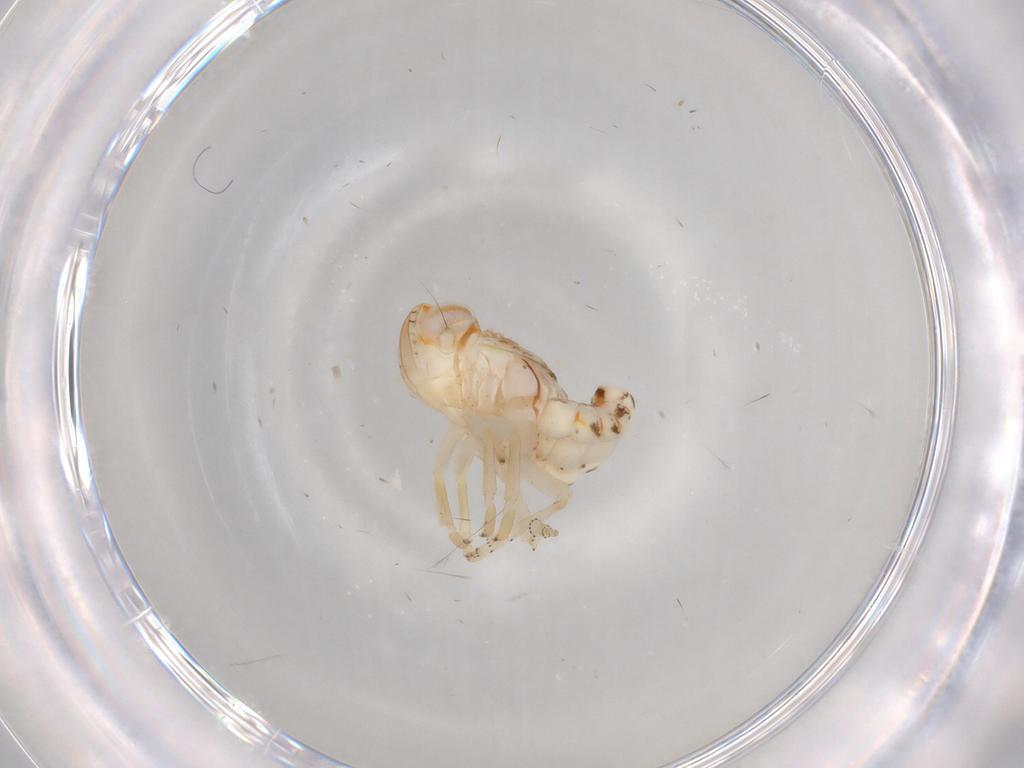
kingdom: Animalia
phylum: Arthropoda
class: Insecta
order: Hemiptera
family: Nogodinidae
